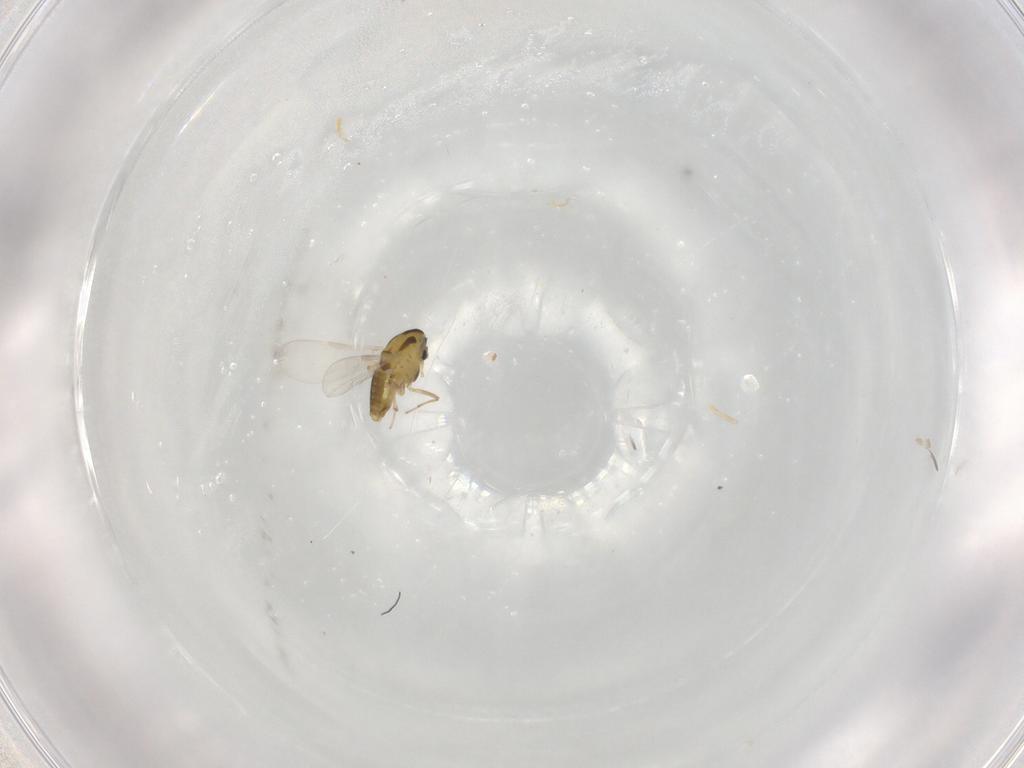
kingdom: Animalia
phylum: Arthropoda
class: Insecta
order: Diptera
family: Chironomidae
